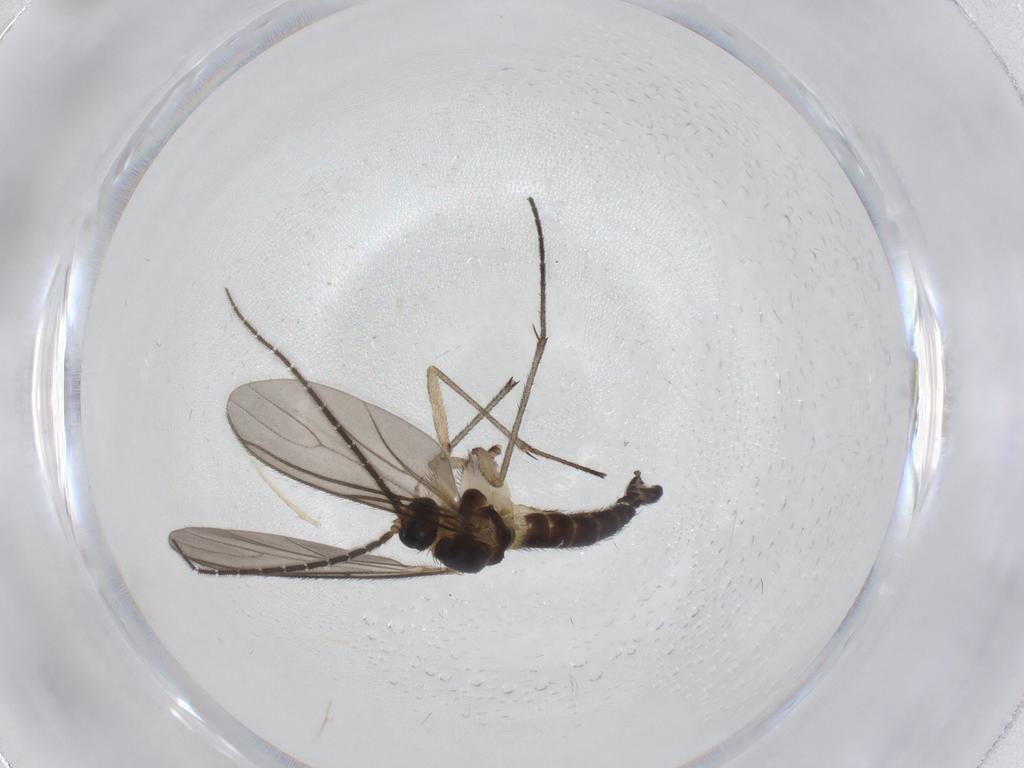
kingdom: Animalia
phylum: Arthropoda
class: Insecta
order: Diptera
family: Sciaridae
